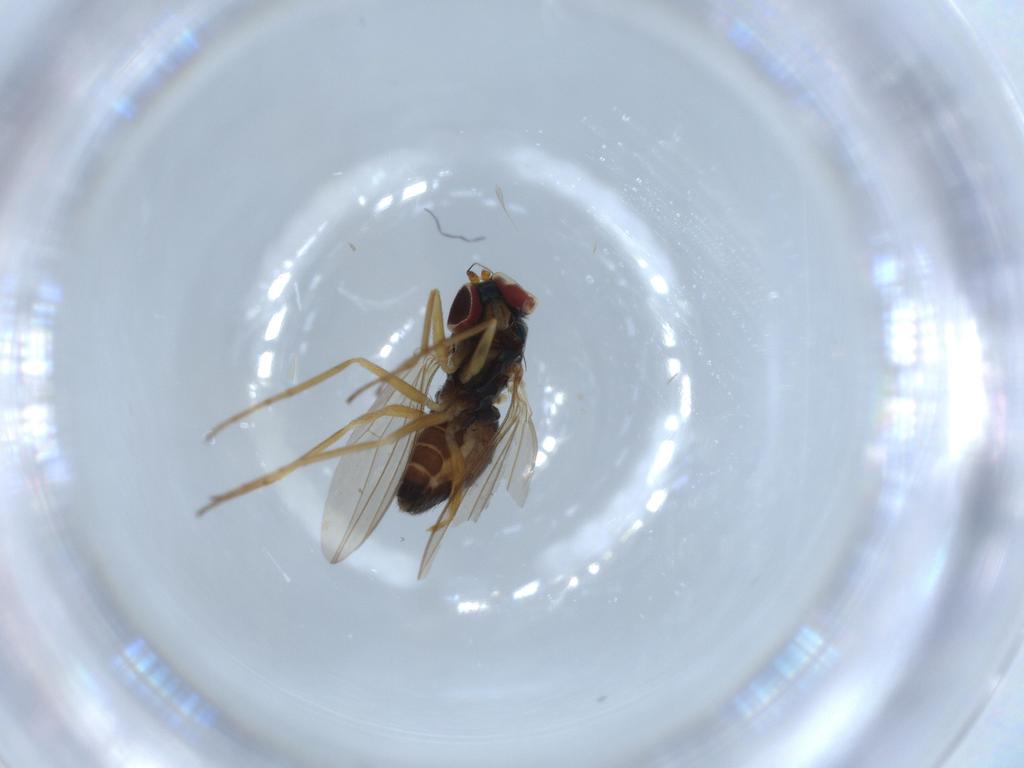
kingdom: Animalia
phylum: Arthropoda
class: Insecta
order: Diptera
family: Dolichopodidae
